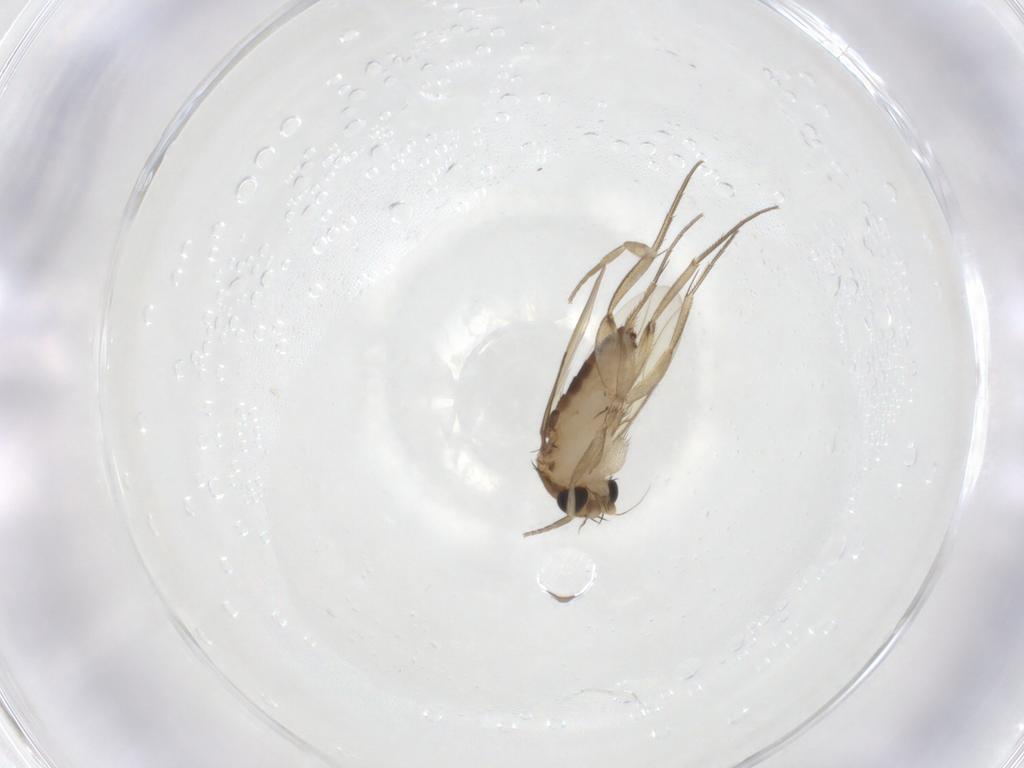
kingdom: Animalia
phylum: Arthropoda
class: Insecta
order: Diptera
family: Phoridae
